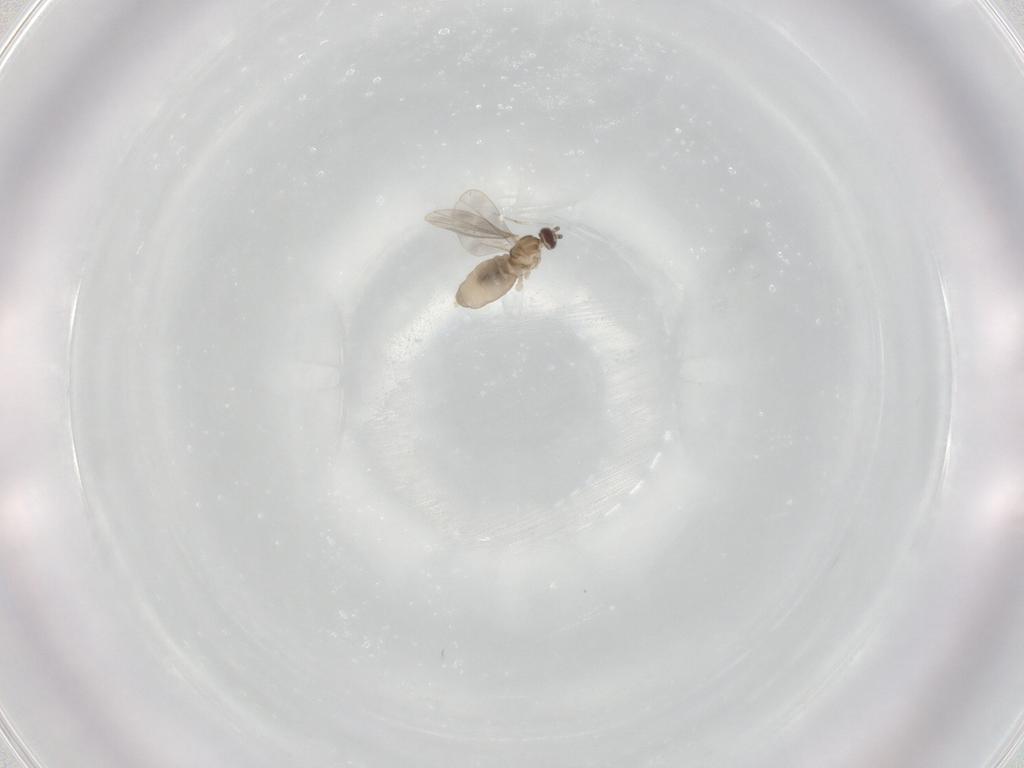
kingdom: Animalia
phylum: Arthropoda
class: Insecta
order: Diptera
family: Cecidomyiidae
